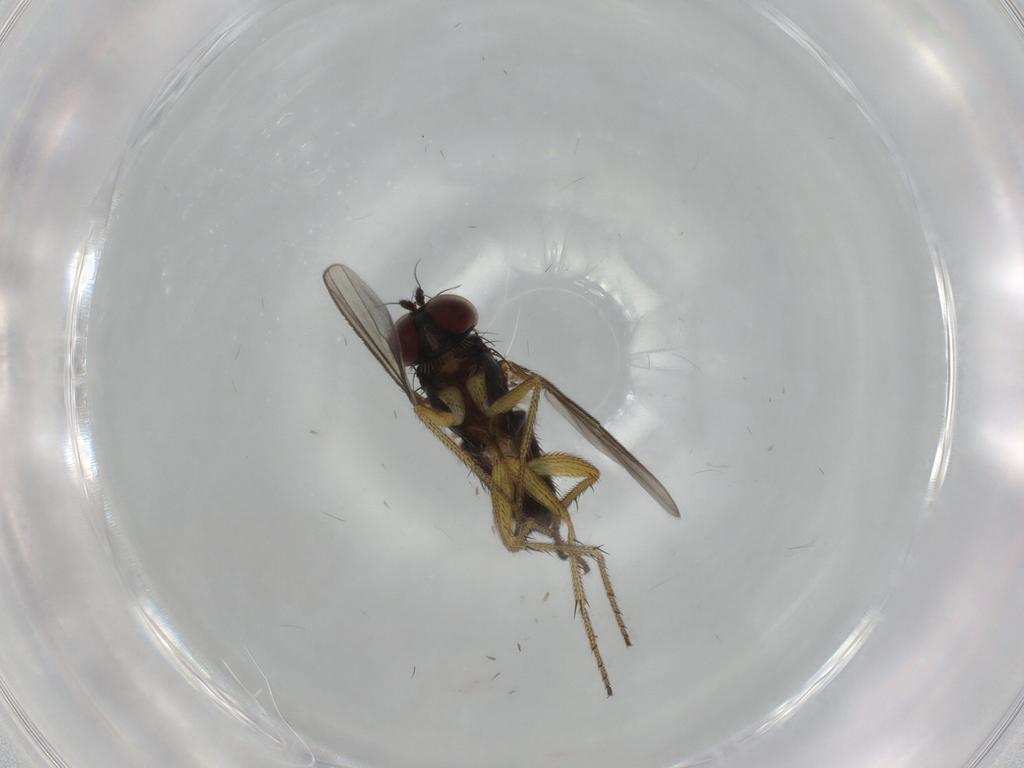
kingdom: Animalia
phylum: Arthropoda
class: Insecta
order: Diptera
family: Dolichopodidae
